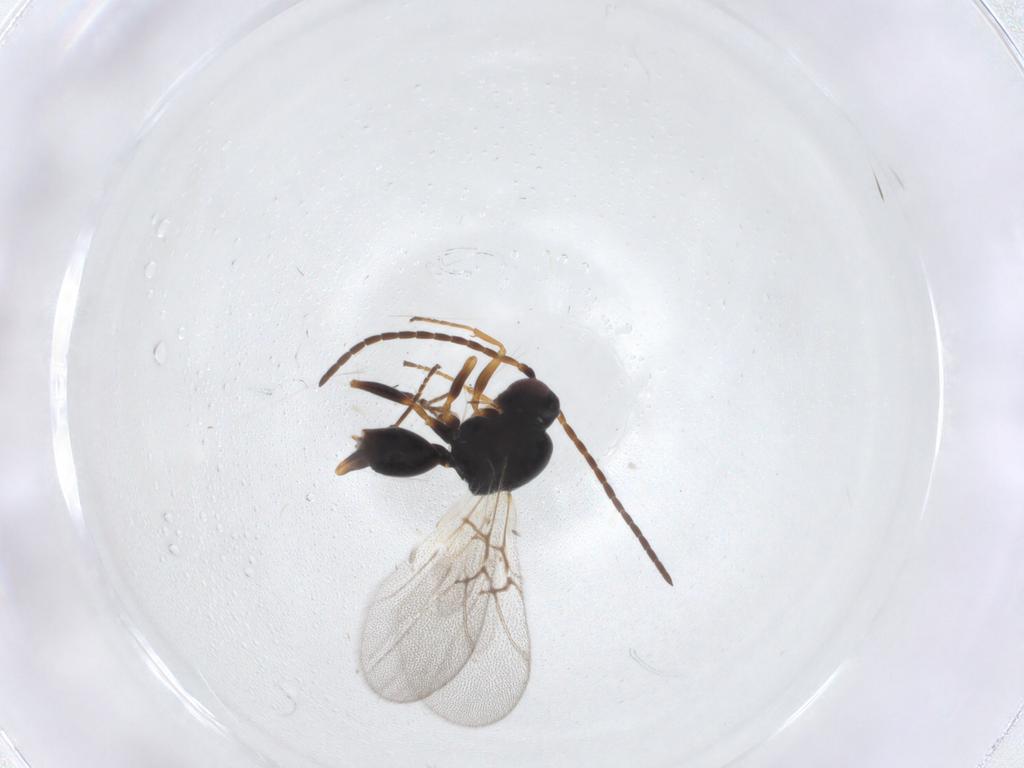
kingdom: Animalia
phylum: Arthropoda
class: Insecta
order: Hymenoptera
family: Cynipidae
